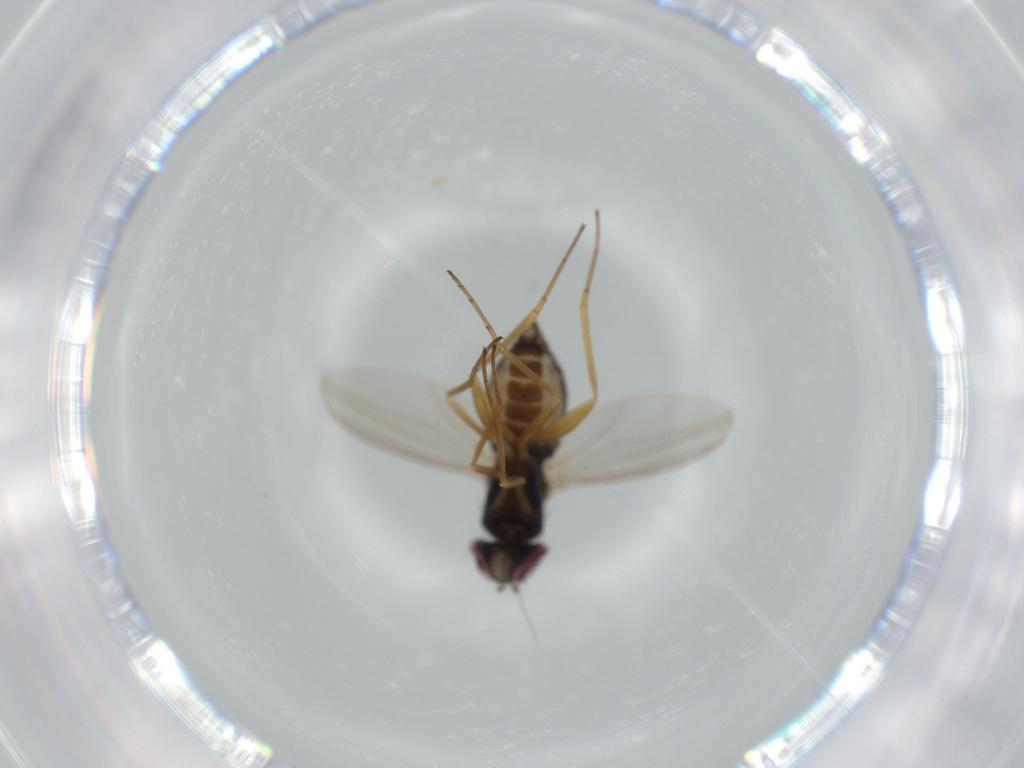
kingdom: Animalia
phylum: Arthropoda
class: Insecta
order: Diptera
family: Dolichopodidae
